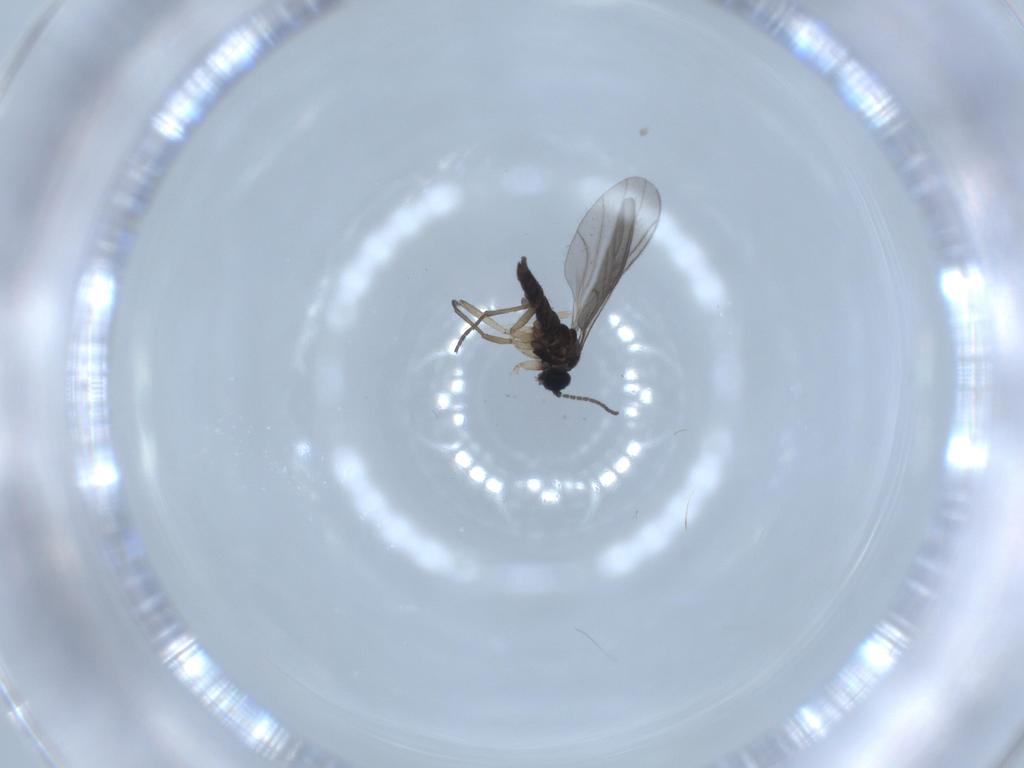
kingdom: Animalia
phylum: Arthropoda
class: Insecta
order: Diptera
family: Sciaridae
